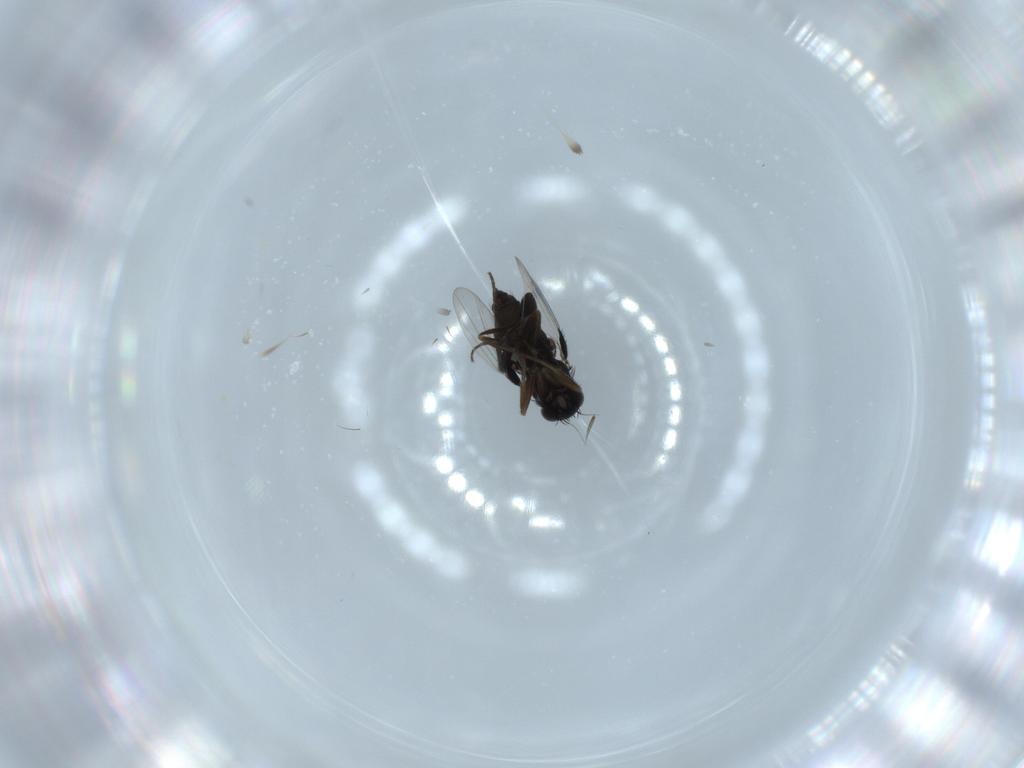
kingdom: Animalia
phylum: Arthropoda
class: Insecta
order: Diptera
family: Phoridae
